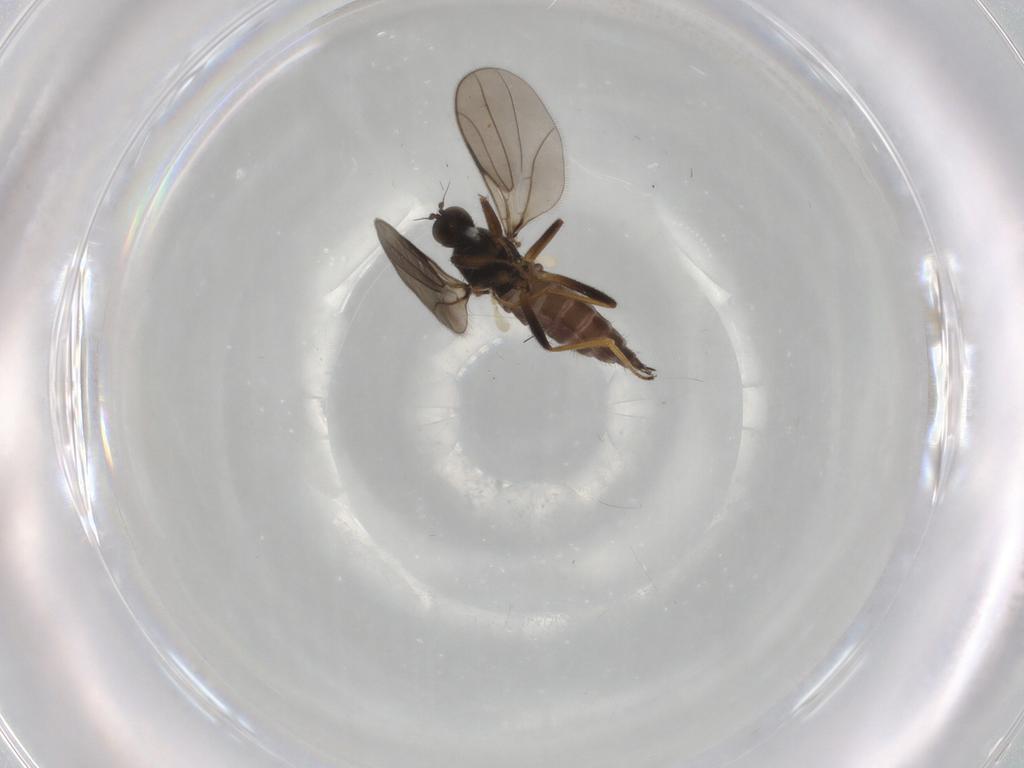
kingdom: Animalia
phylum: Arthropoda
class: Insecta
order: Diptera
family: Hybotidae
